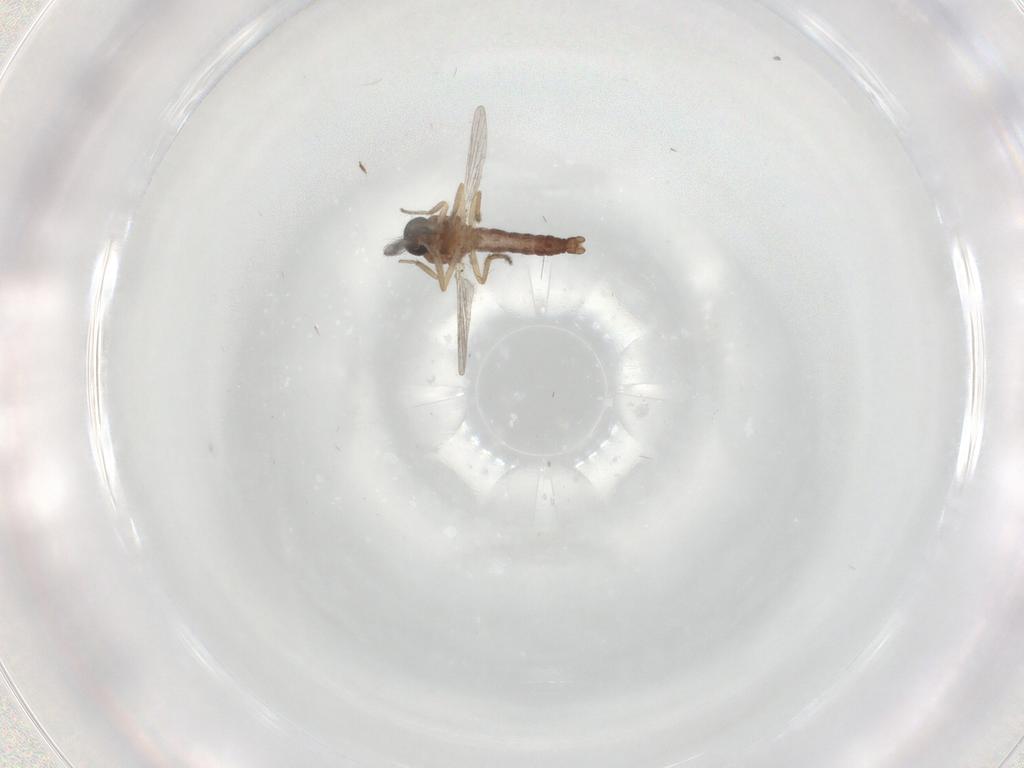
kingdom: Animalia
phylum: Arthropoda
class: Insecta
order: Diptera
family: Ceratopogonidae
